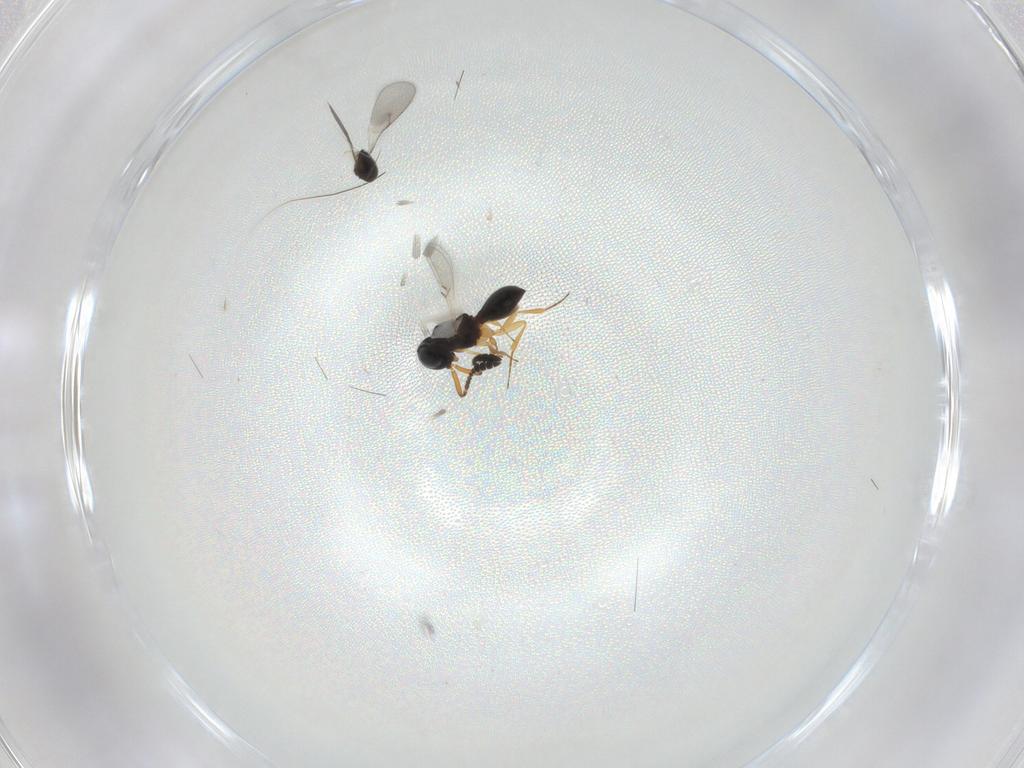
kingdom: Animalia
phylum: Arthropoda
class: Insecta
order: Hymenoptera
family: Scelionidae
